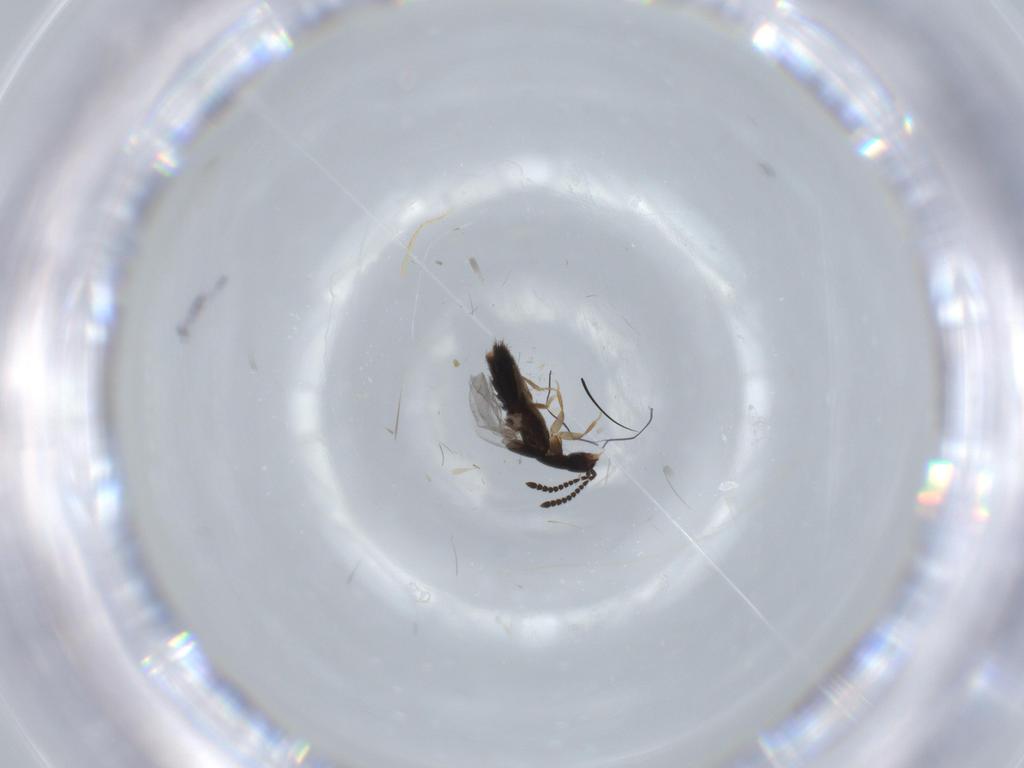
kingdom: Animalia
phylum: Arthropoda
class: Insecta
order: Coleoptera
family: Staphylinidae
